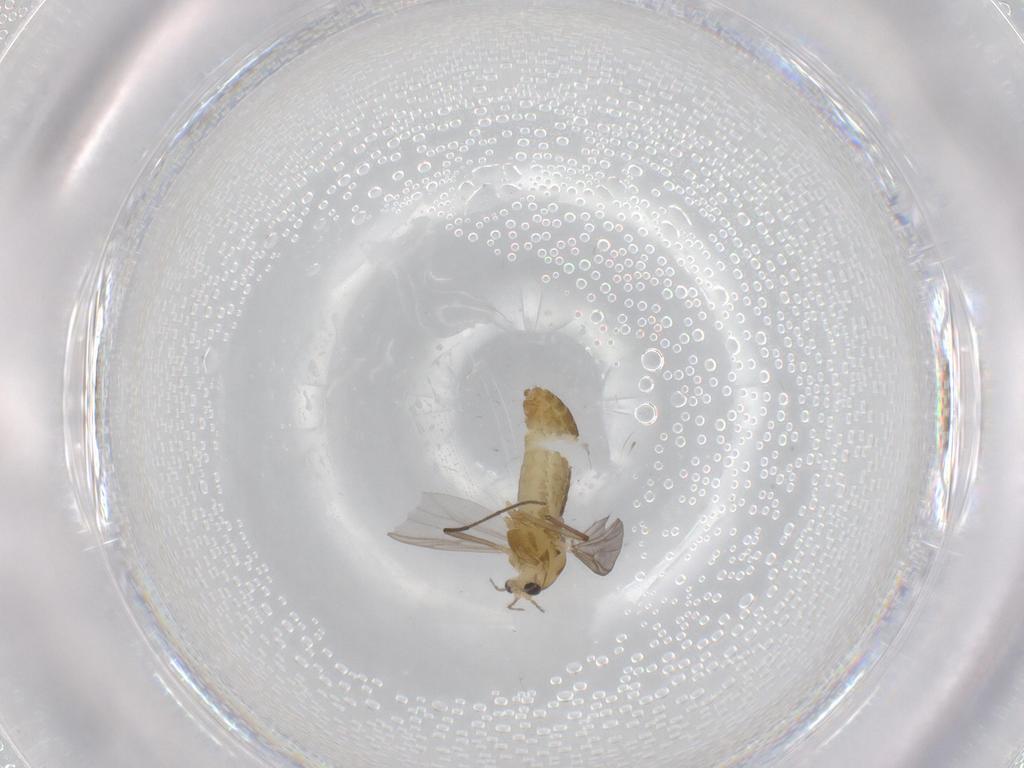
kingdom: Animalia
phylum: Arthropoda
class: Insecta
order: Diptera
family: Chironomidae
